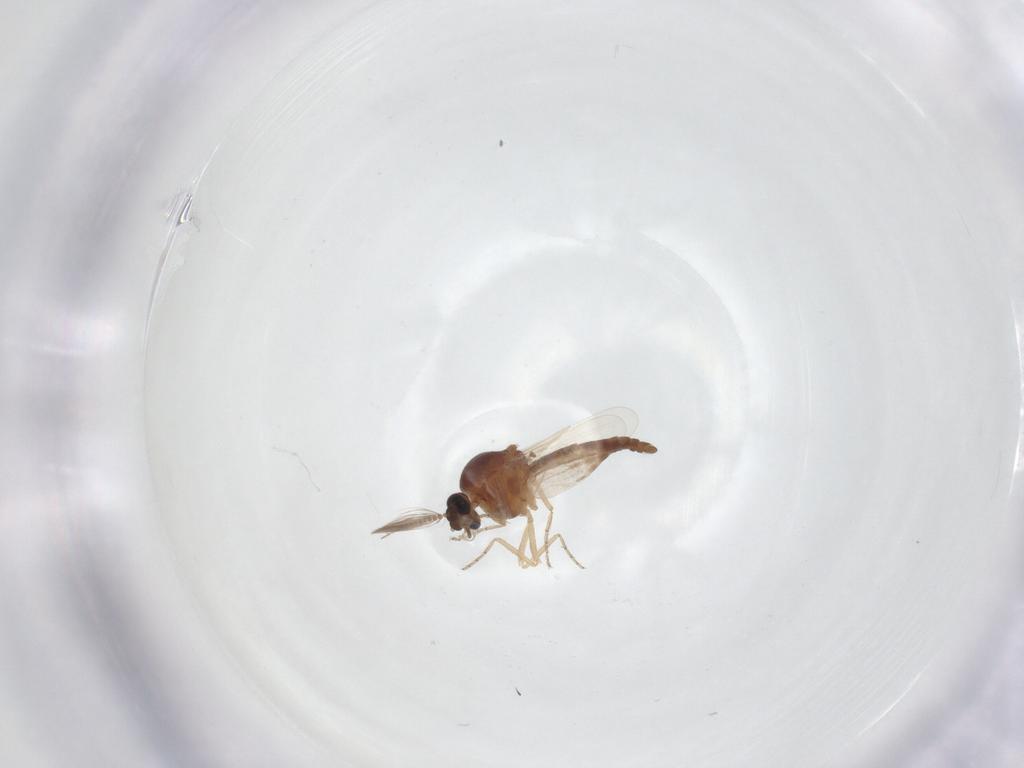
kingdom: Animalia
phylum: Arthropoda
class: Insecta
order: Diptera
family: Ceratopogonidae
